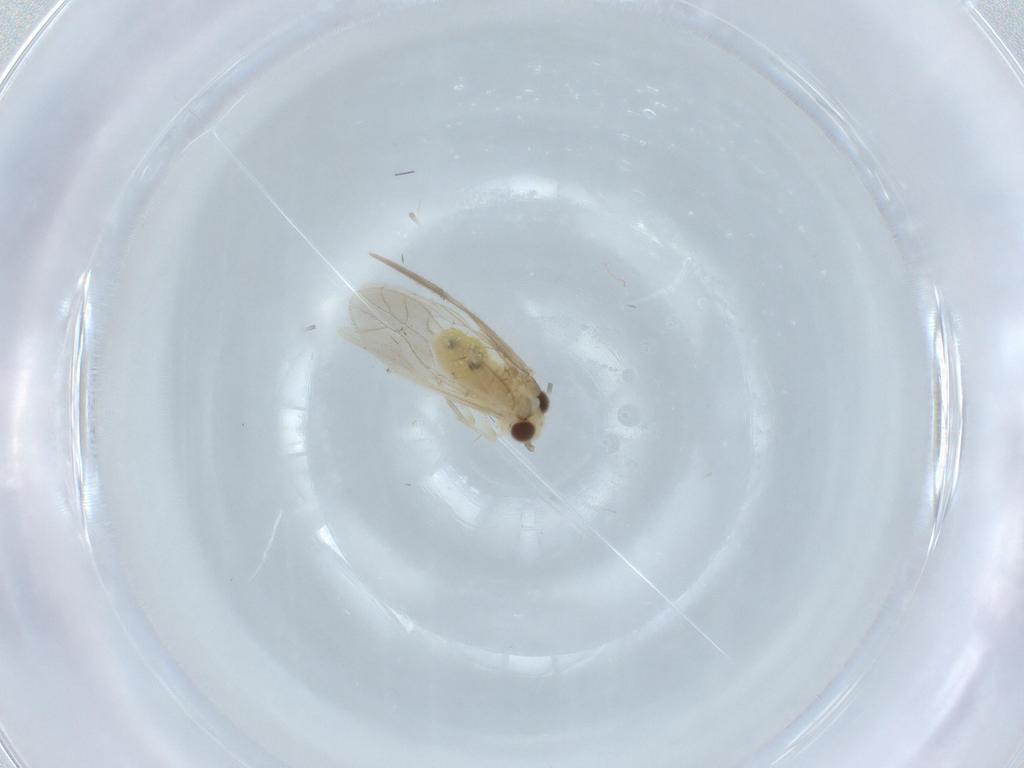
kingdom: Animalia
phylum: Arthropoda
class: Insecta
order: Psocodea
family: Caeciliusidae
